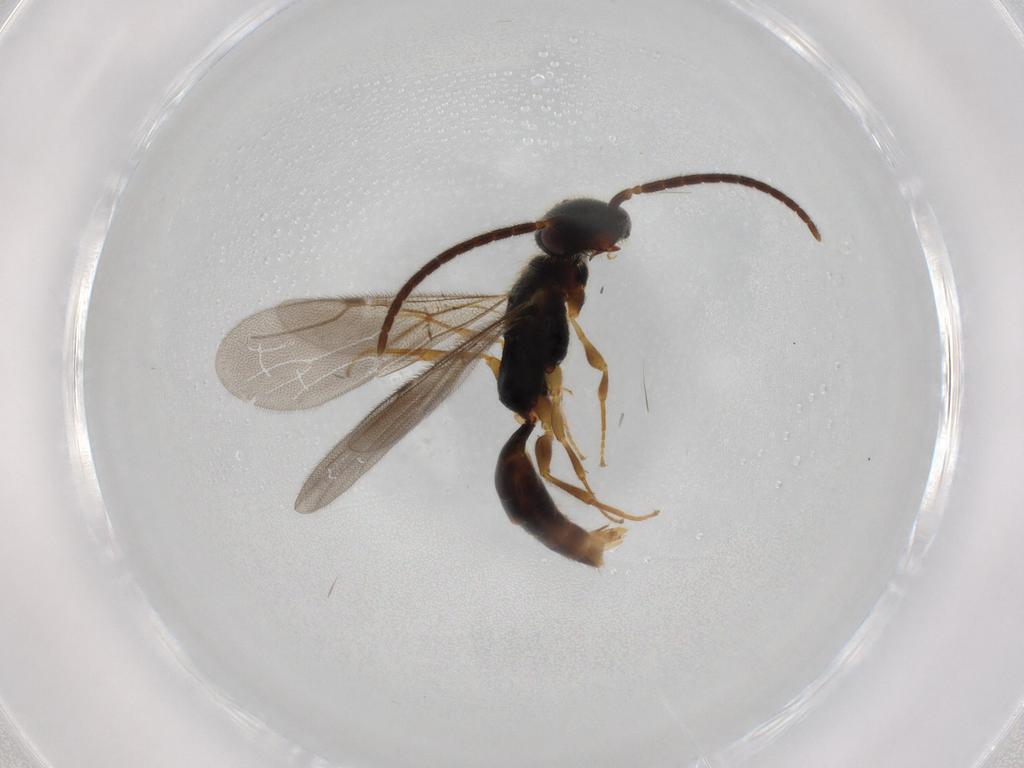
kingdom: Animalia
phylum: Arthropoda
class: Insecta
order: Hymenoptera
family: Bethylidae
